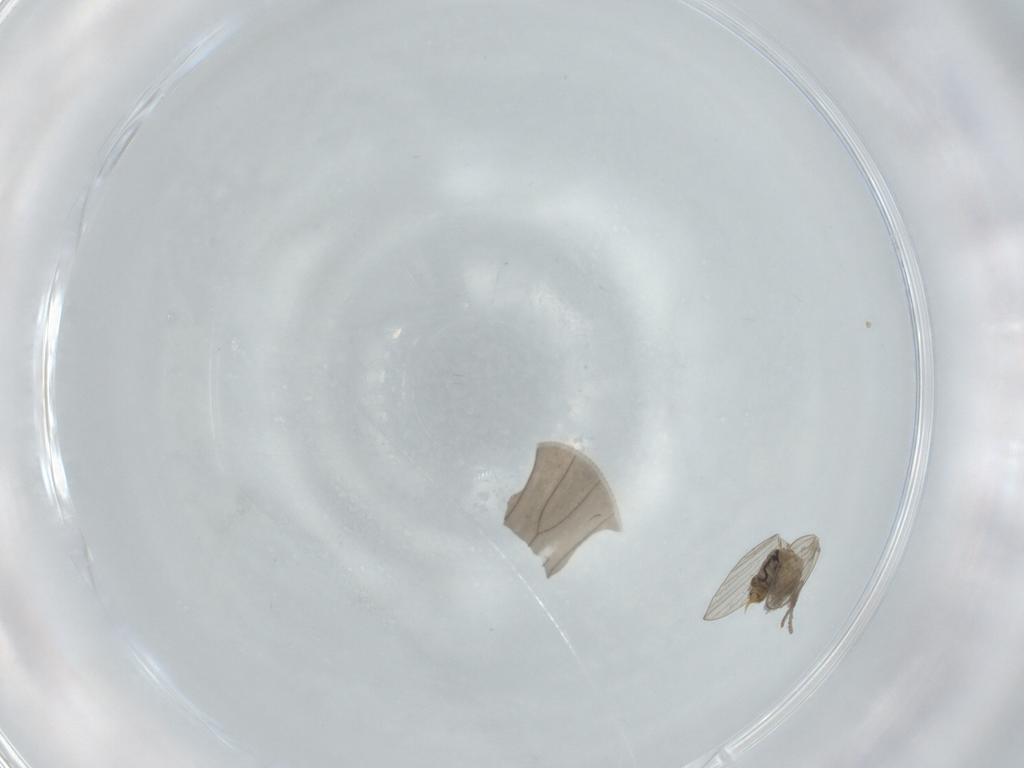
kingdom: Animalia
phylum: Arthropoda
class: Insecta
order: Diptera
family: Psychodidae
